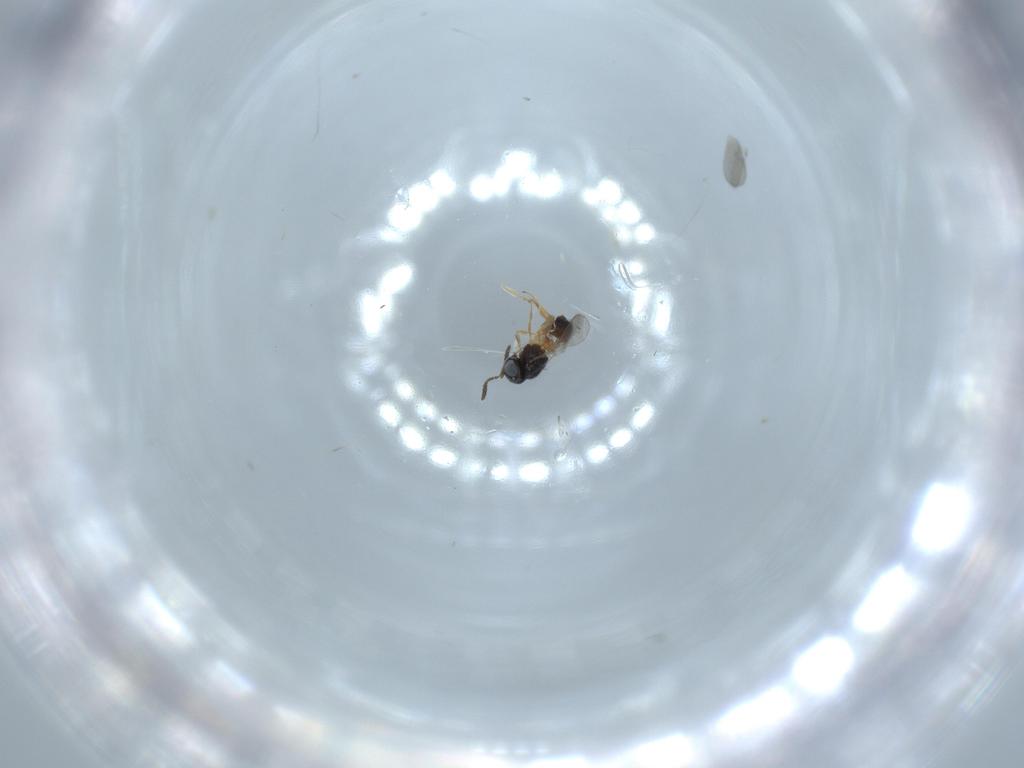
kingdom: Animalia
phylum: Arthropoda
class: Insecta
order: Hymenoptera
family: Scelionidae
